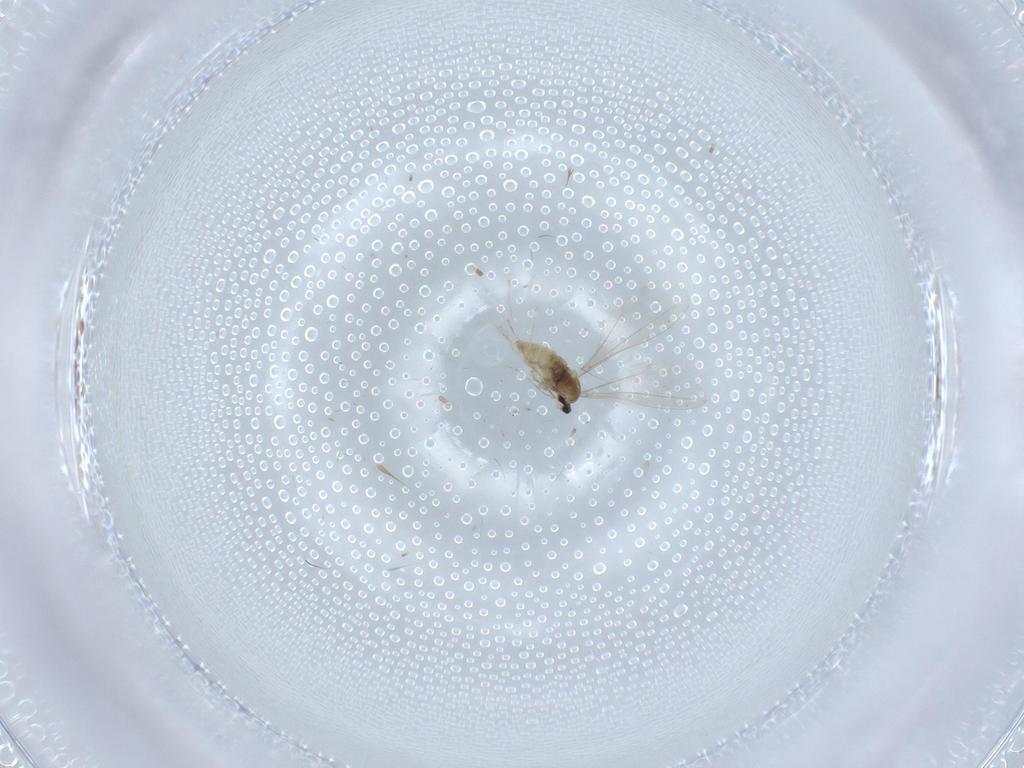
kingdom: Animalia
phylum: Arthropoda
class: Insecta
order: Diptera
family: Cecidomyiidae
